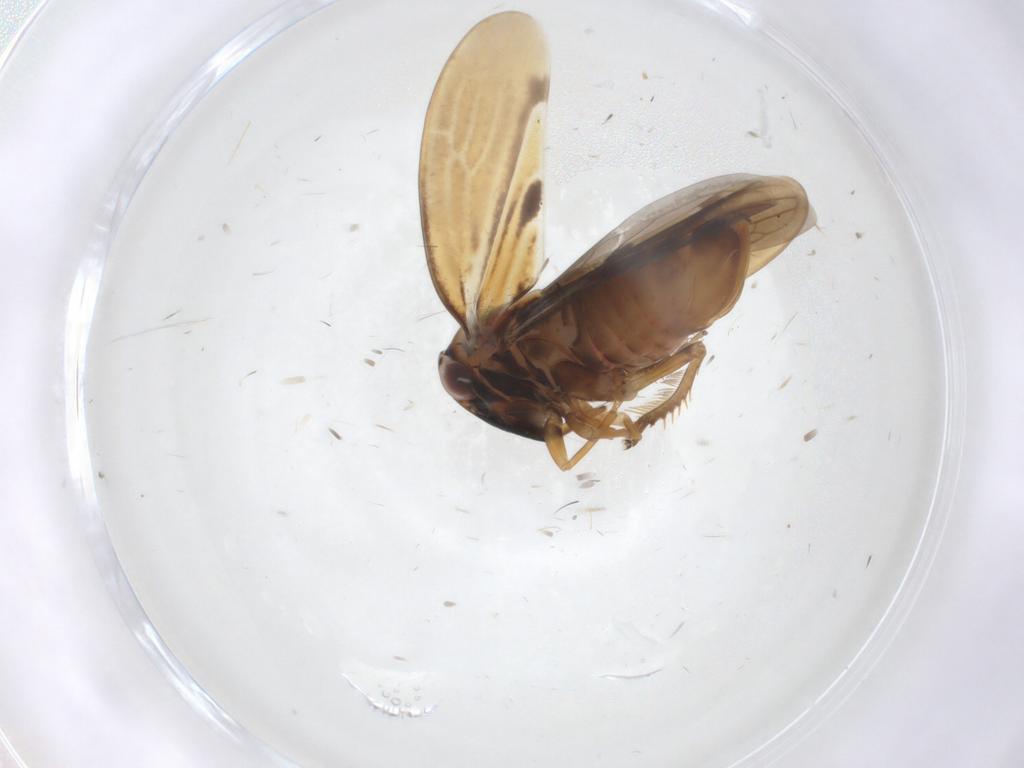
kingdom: Animalia
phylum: Arthropoda
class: Insecta
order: Hemiptera
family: Cicadellidae
